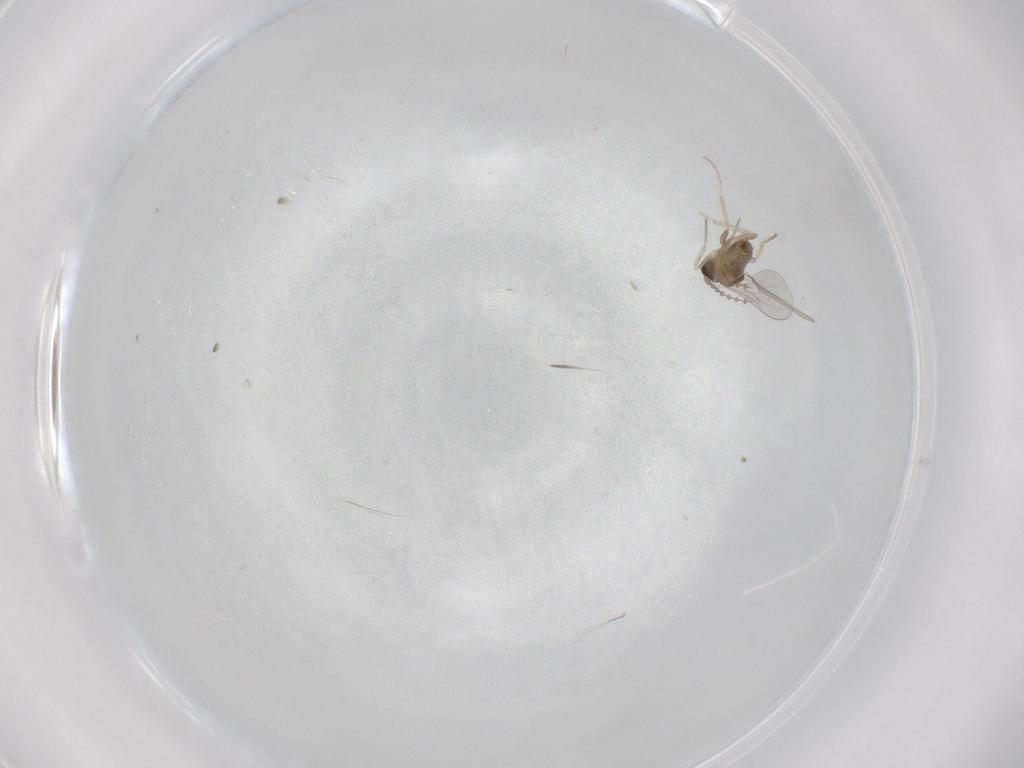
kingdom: Animalia
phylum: Arthropoda
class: Insecta
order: Diptera
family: Cecidomyiidae
